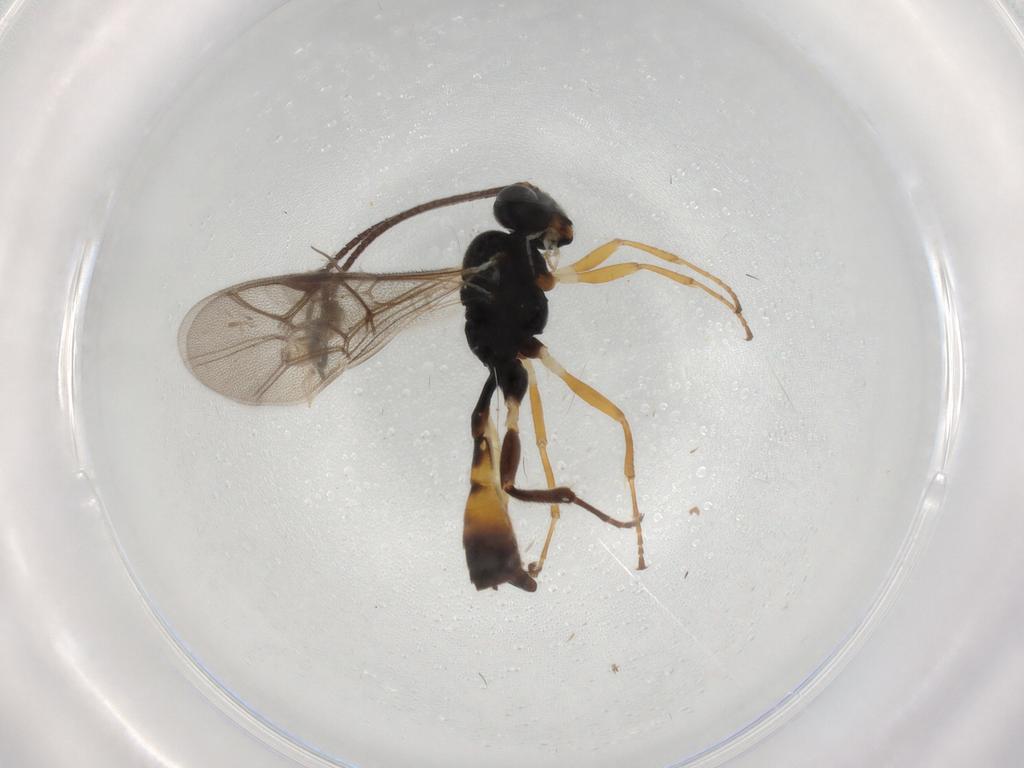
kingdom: Animalia
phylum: Arthropoda
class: Insecta
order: Hymenoptera
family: Ichneumonidae
